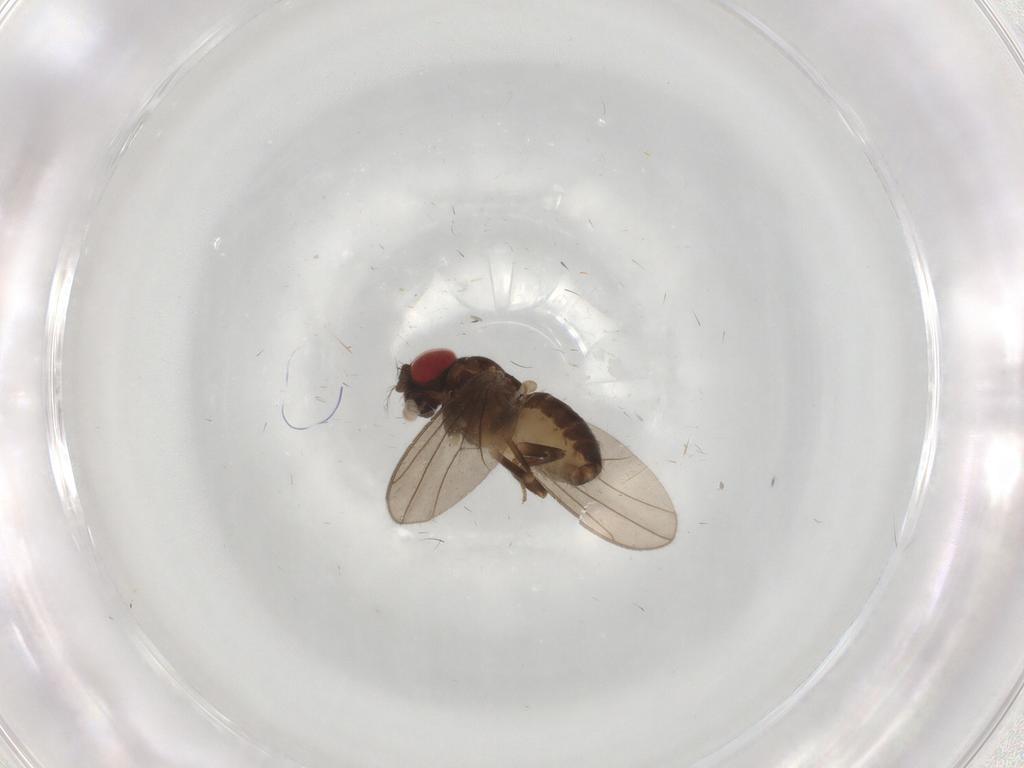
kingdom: Animalia
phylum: Arthropoda
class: Insecta
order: Diptera
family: Cecidomyiidae
